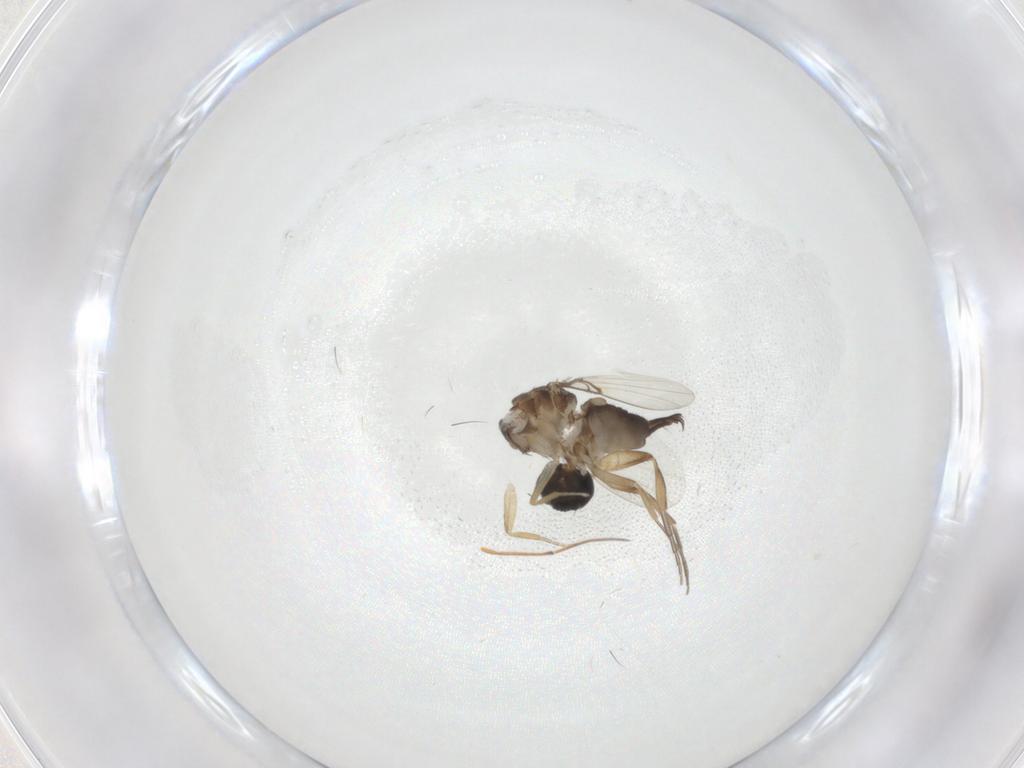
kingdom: Animalia
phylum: Arthropoda
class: Insecta
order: Diptera
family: Phoridae
